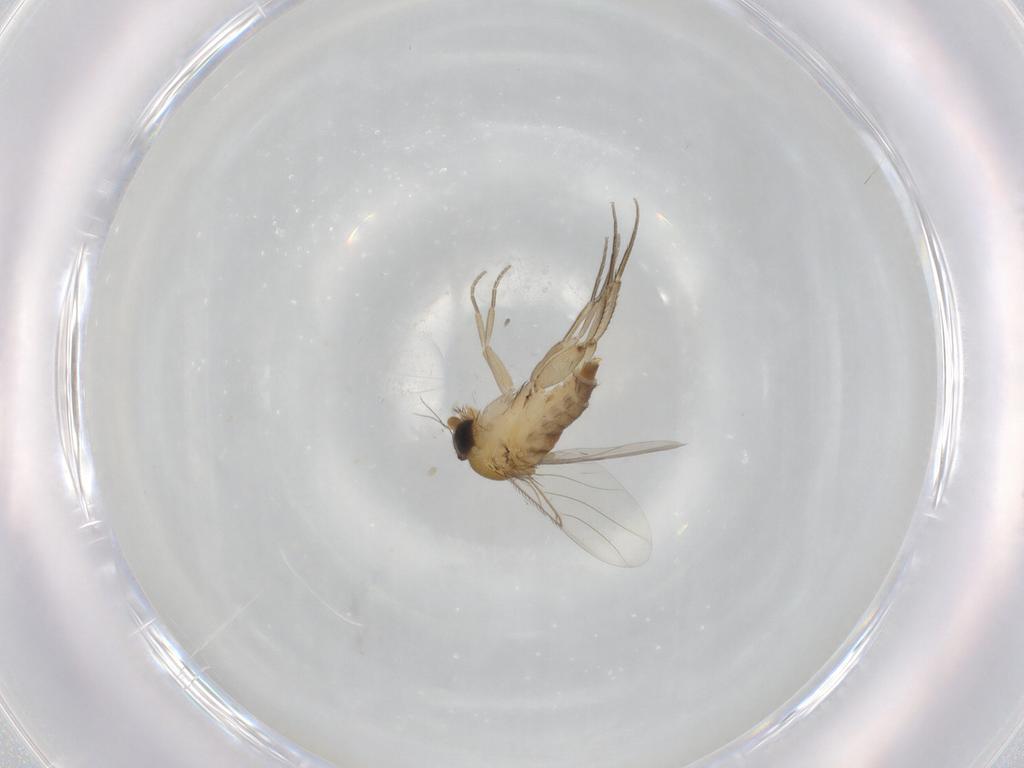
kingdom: Animalia
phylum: Arthropoda
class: Insecta
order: Diptera
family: Phoridae
